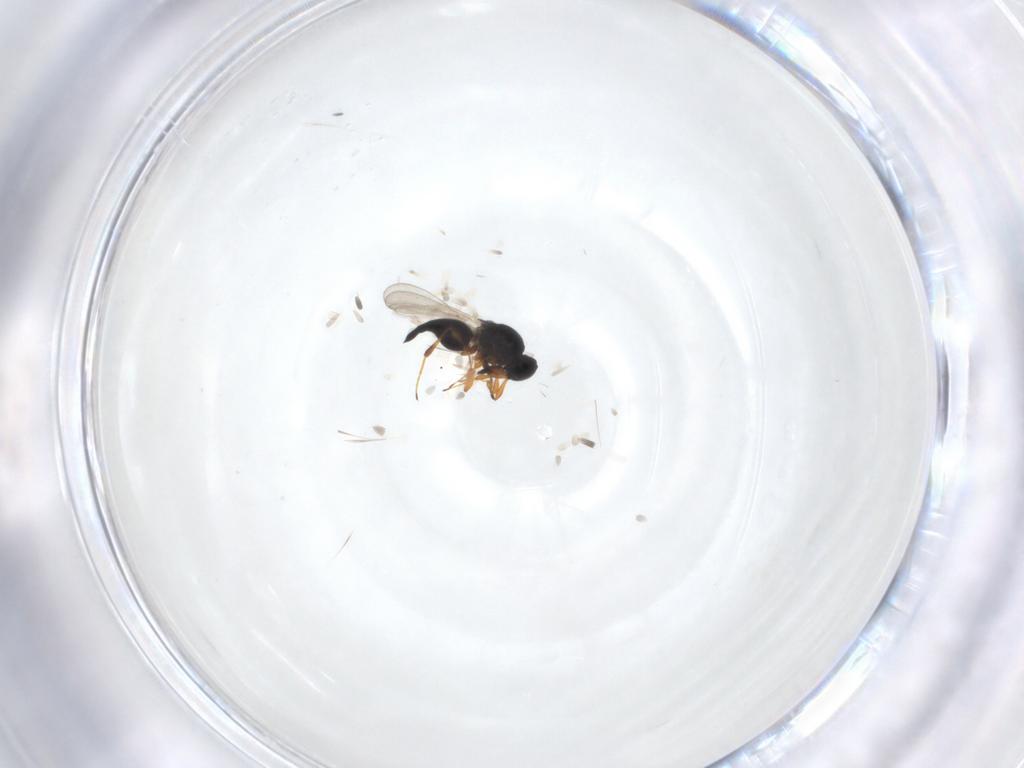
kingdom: Animalia
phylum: Arthropoda
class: Insecta
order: Hymenoptera
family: Platygastridae
